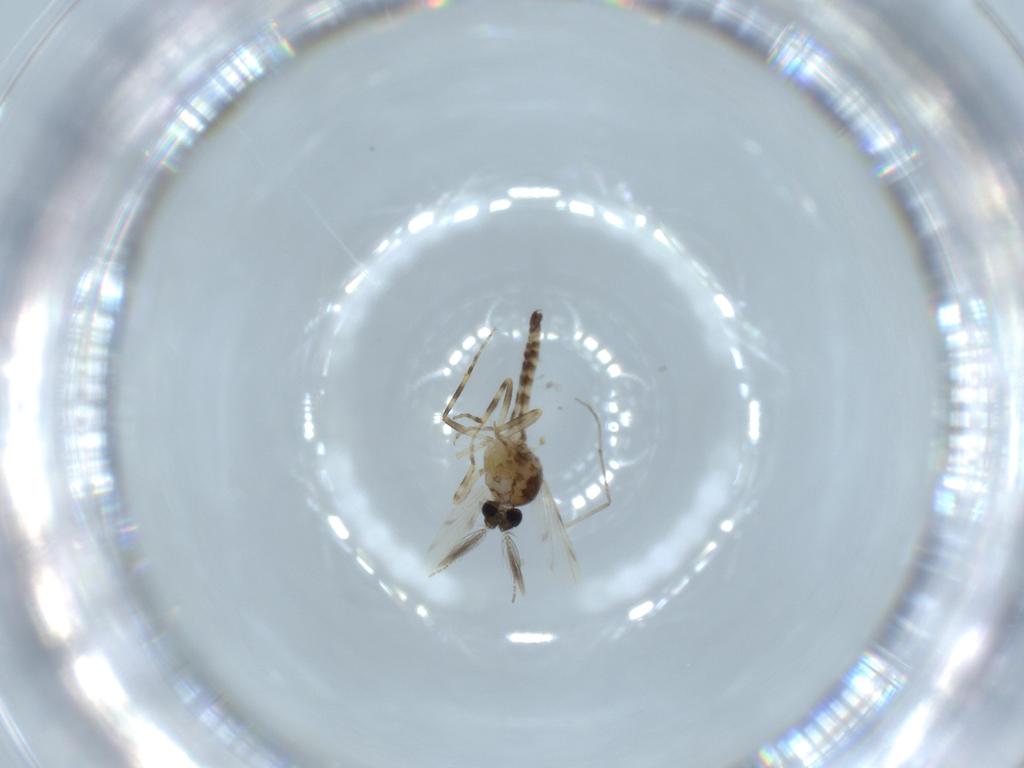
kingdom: Animalia
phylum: Arthropoda
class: Insecta
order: Diptera
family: Ceratopogonidae
